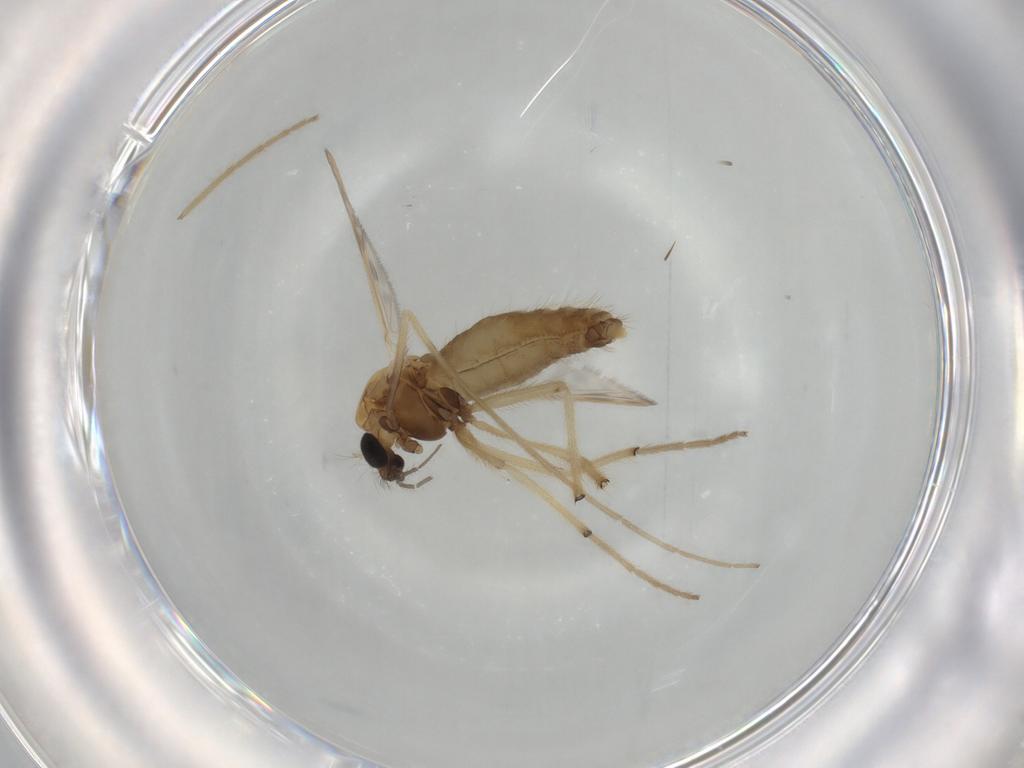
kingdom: Animalia
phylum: Arthropoda
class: Insecta
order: Diptera
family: Chironomidae
